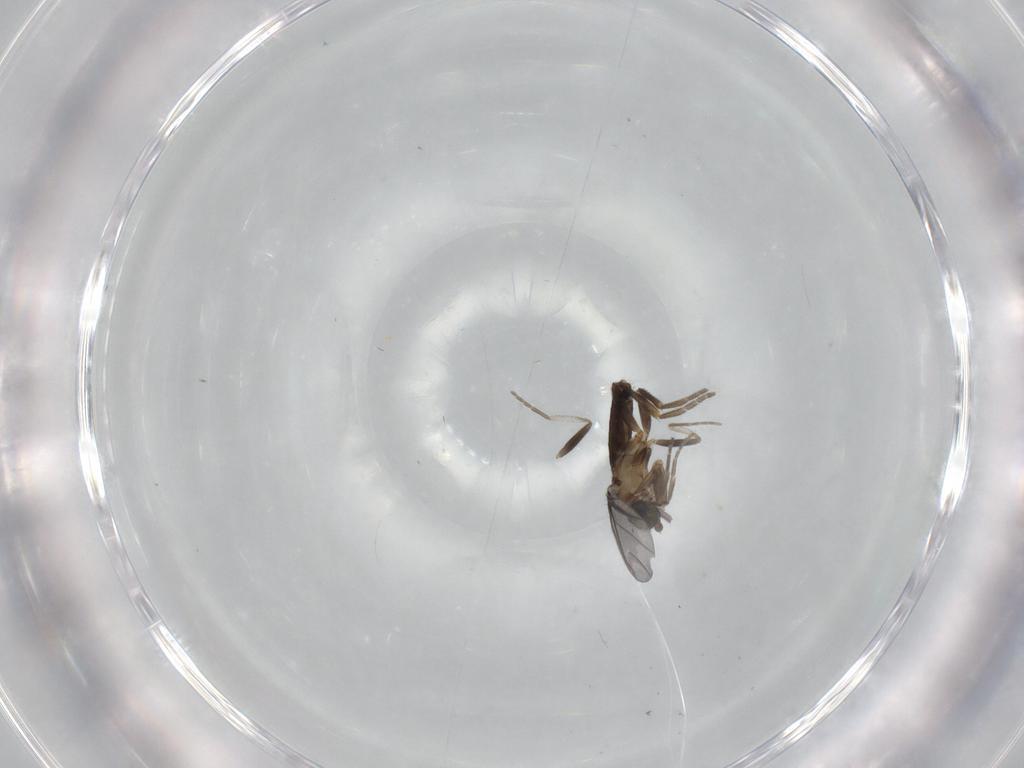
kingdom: Animalia
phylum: Arthropoda
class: Insecta
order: Diptera
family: Phoridae
